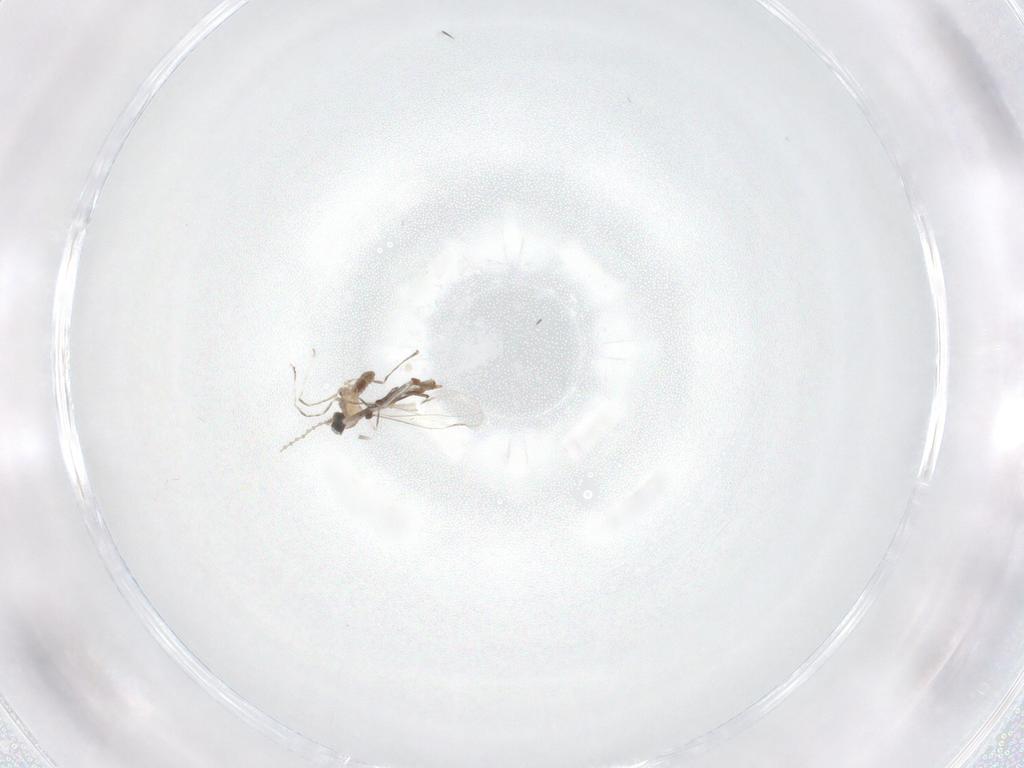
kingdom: Animalia
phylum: Arthropoda
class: Insecta
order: Diptera
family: Cecidomyiidae
